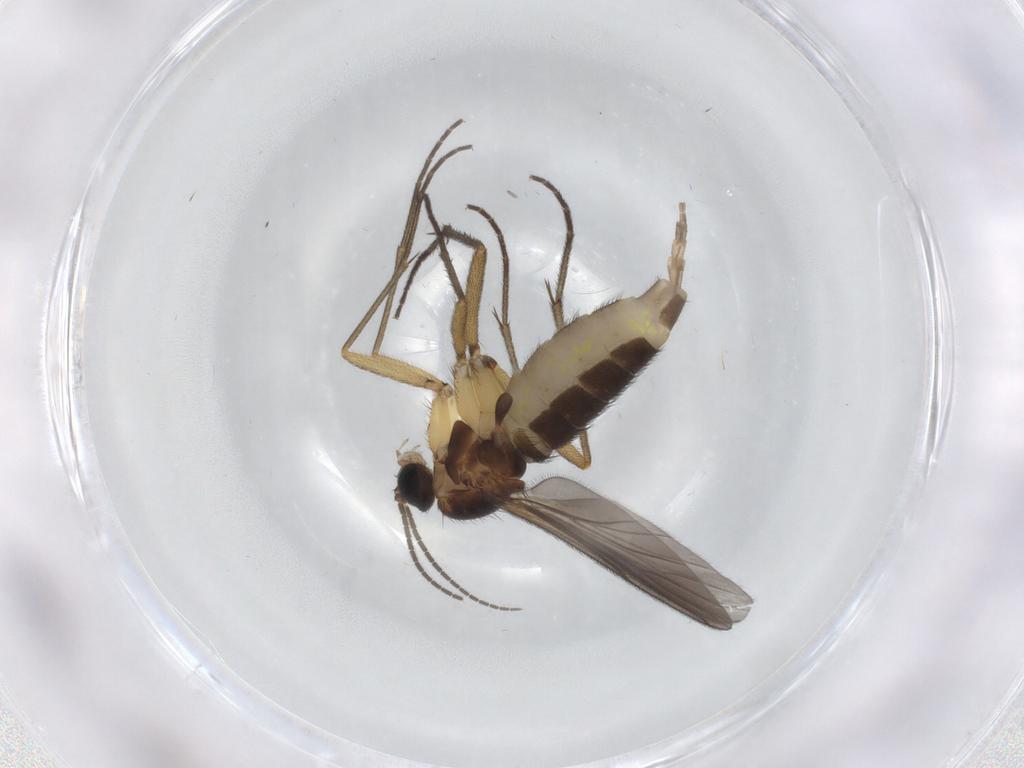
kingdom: Animalia
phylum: Arthropoda
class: Insecta
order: Diptera
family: Sciaridae
